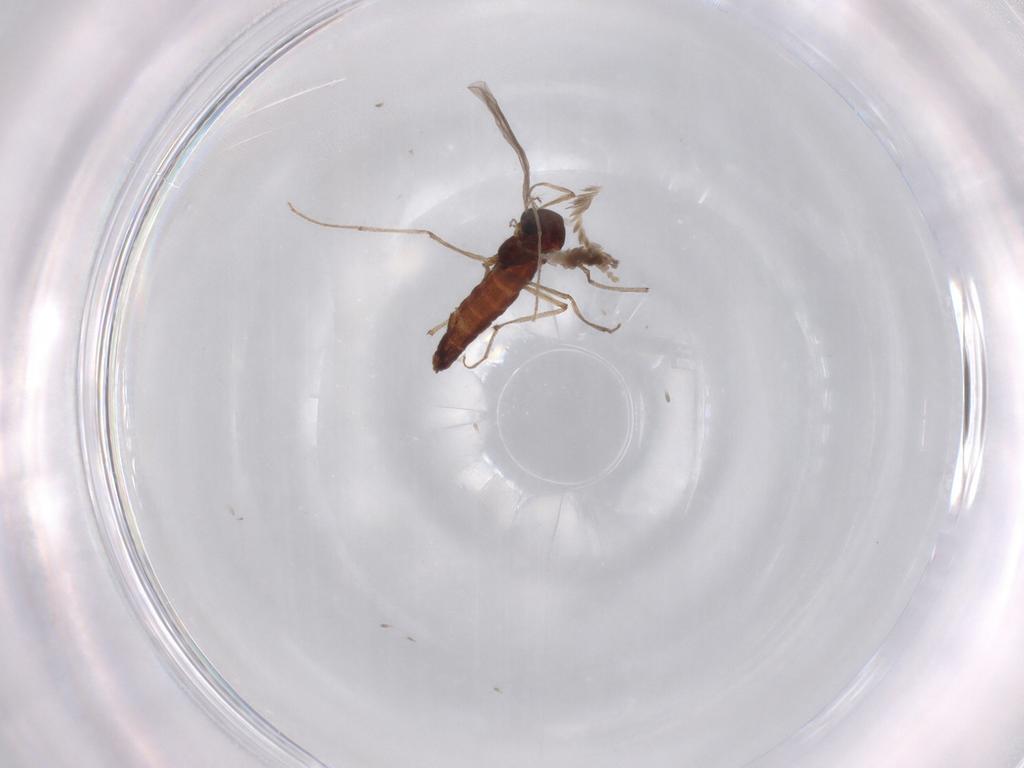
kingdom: Animalia
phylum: Arthropoda
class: Insecta
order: Diptera
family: Chironomidae
